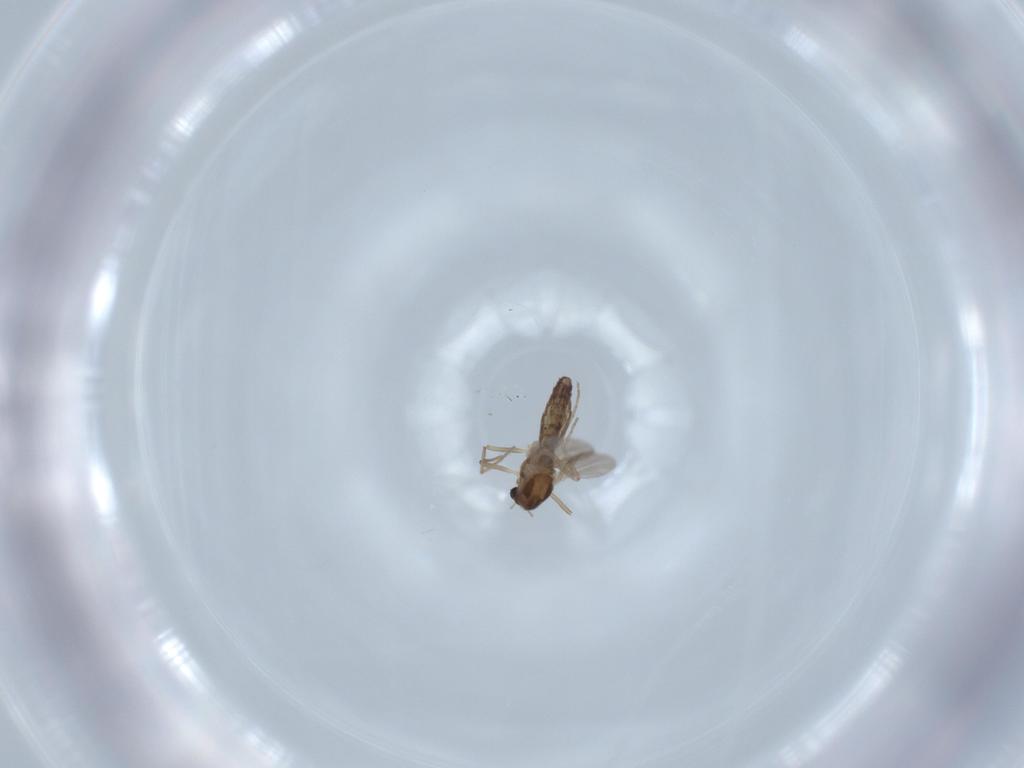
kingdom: Animalia
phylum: Arthropoda
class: Insecta
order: Diptera
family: Chironomidae
